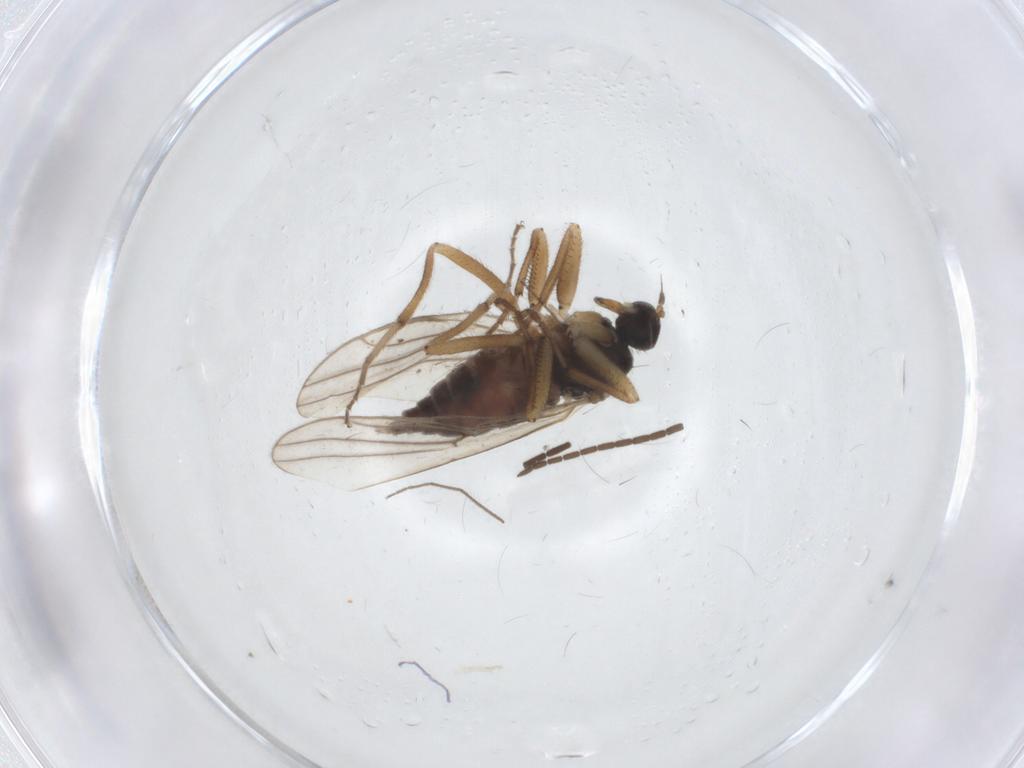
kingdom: Animalia
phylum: Arthropoda
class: Insecta
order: Diptera
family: Hybotidae
